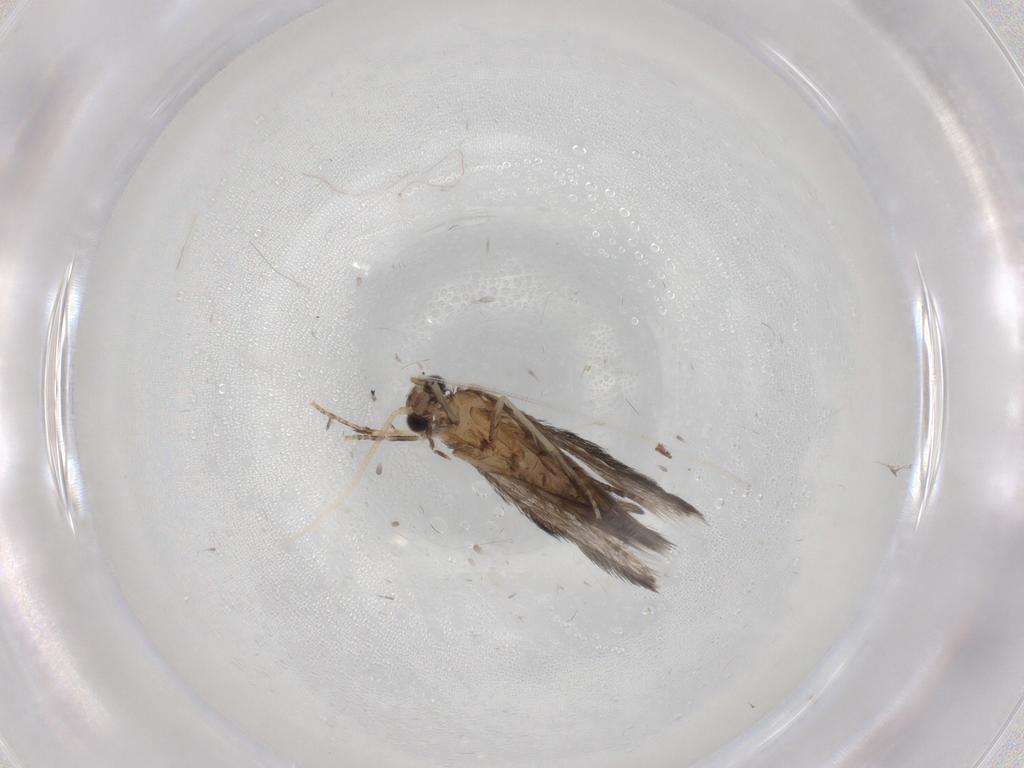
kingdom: Animalia
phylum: Arthropoda
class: Insecta
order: Trichoptera
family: Hydroptilidae
